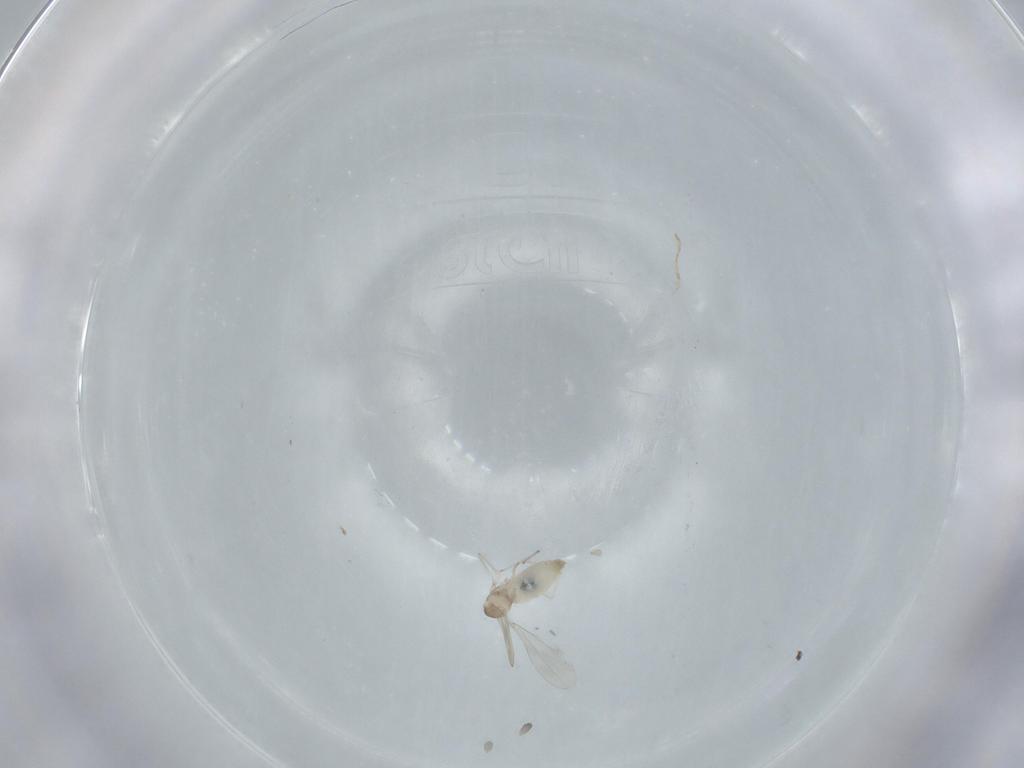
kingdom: Animalia
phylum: Arthropoda
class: Insecta
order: Diptera
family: Cecidomyiidae
